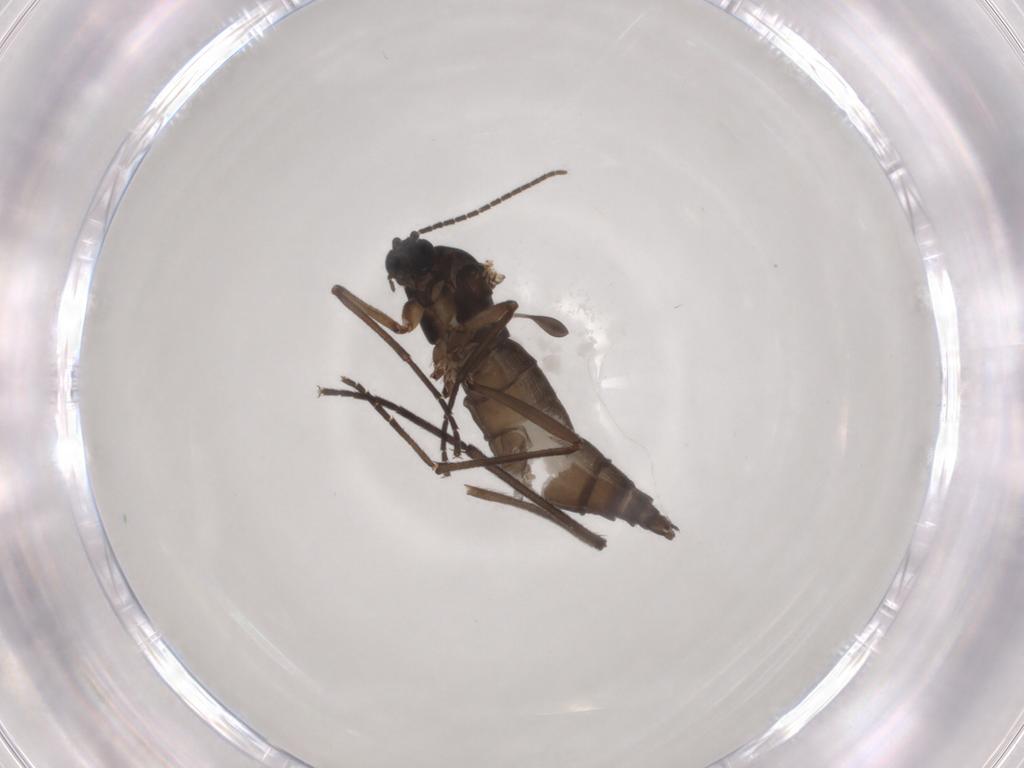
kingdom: Animalia
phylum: Arthropoda
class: Insecta
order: Diptera
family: Sciaridae
